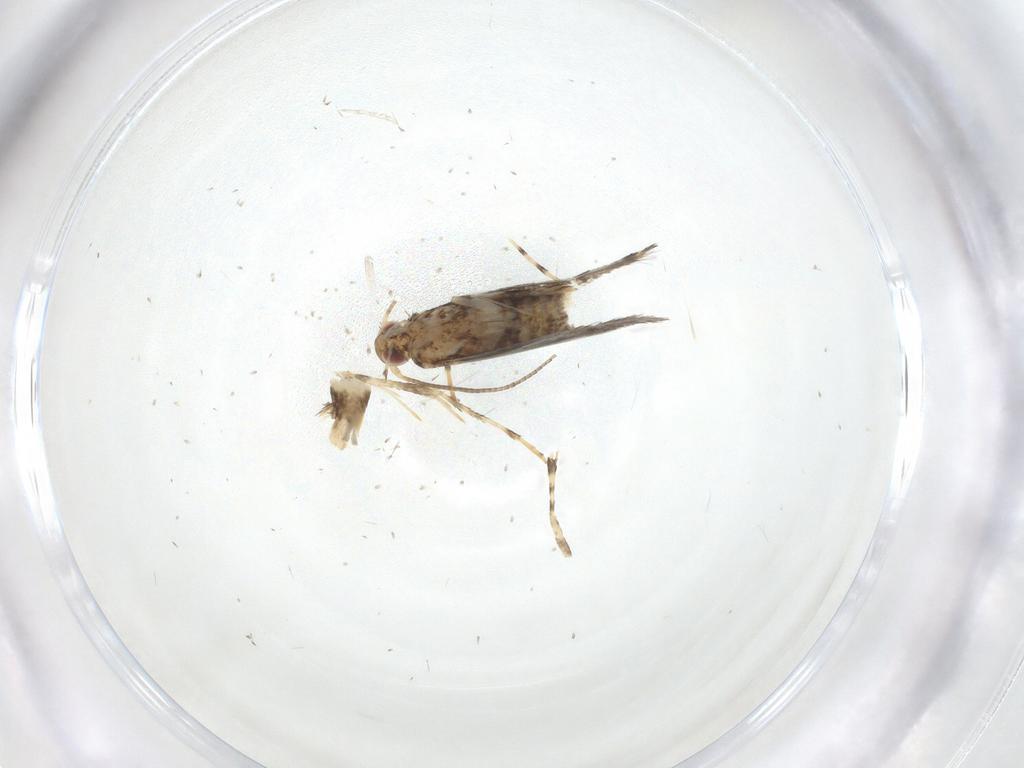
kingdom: Animalia
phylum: Arthropoda
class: Insecta
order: Lepidoptera
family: Gracillariidae
